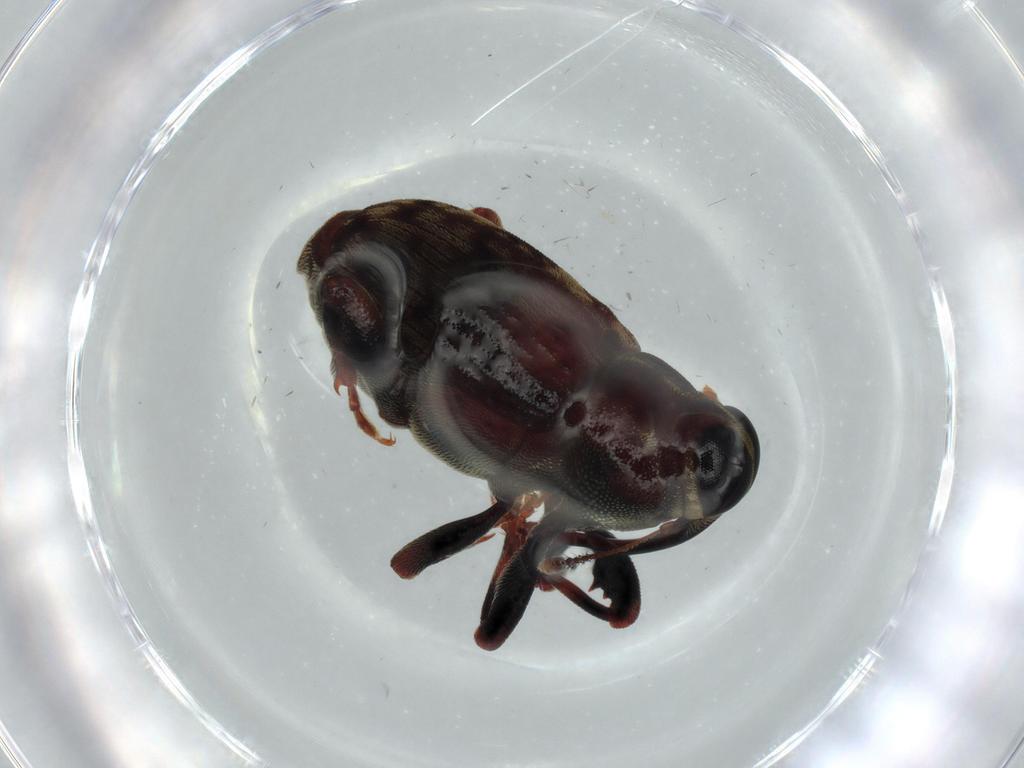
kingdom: Animalia
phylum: Arthropoda
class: Insecta
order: Coleoptera
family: Curculionidae
